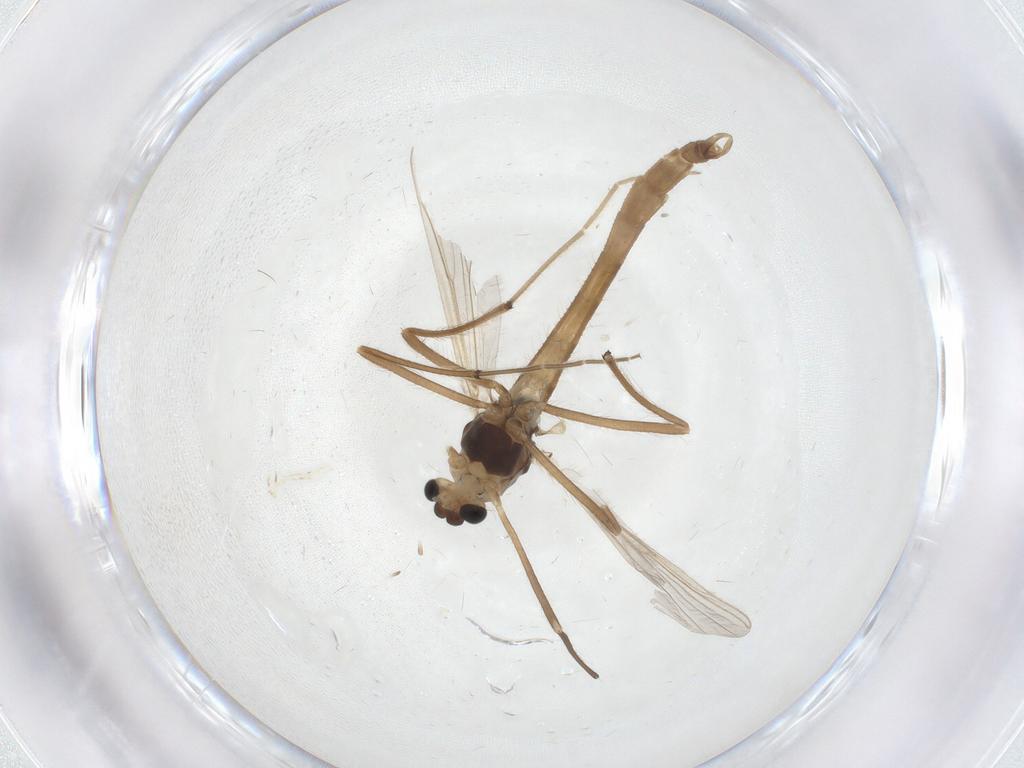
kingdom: Animalia
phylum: Arthropoda
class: Insecta
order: Diptera
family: Chironomidae
